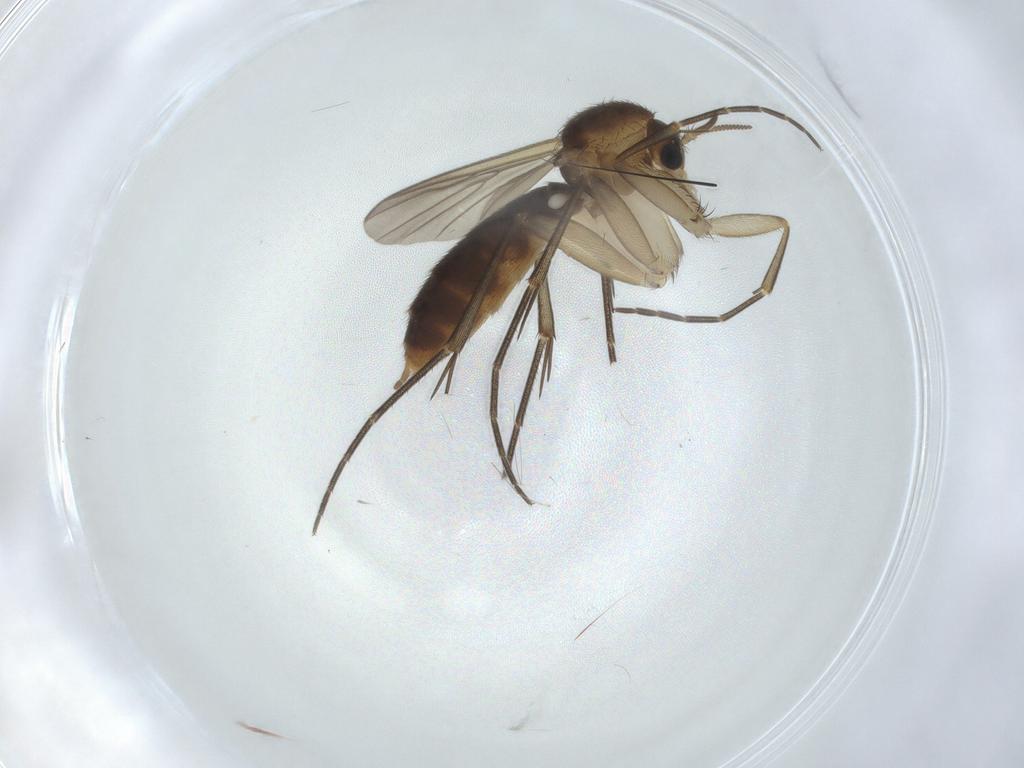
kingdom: Animalia
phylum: Arthropoda
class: Insecta
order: Diptera
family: Mycetophilidae
